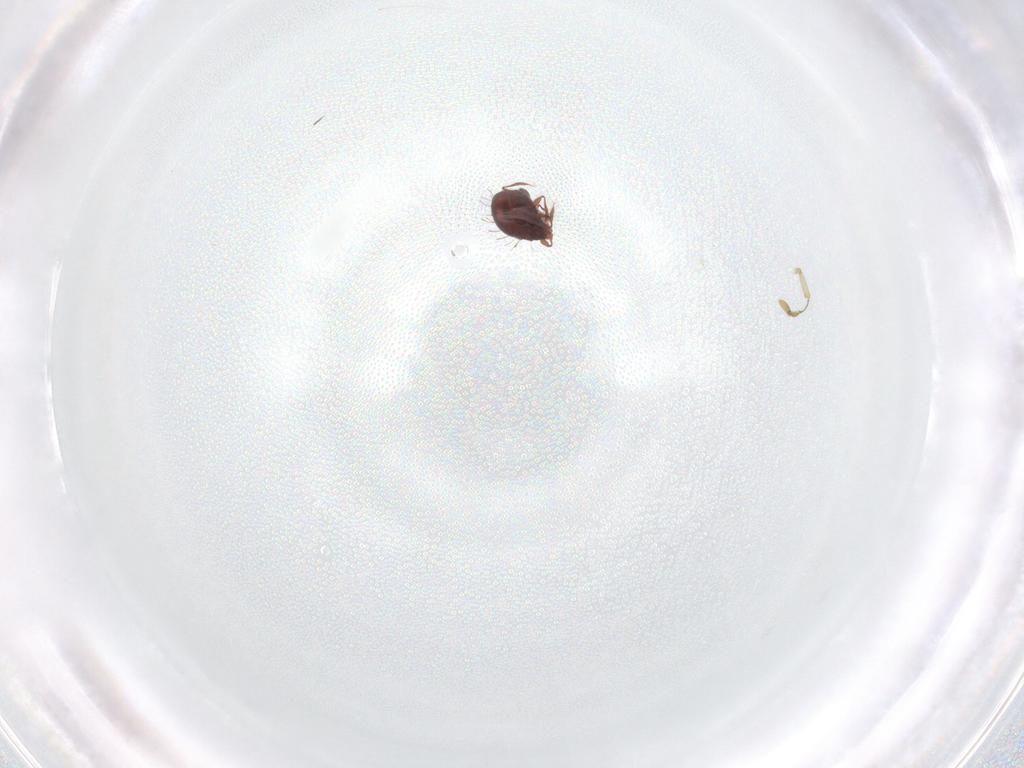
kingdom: Animalia
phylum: Arthropoda
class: Arachnida
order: Sarcoptiformes
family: Caloppiidae
